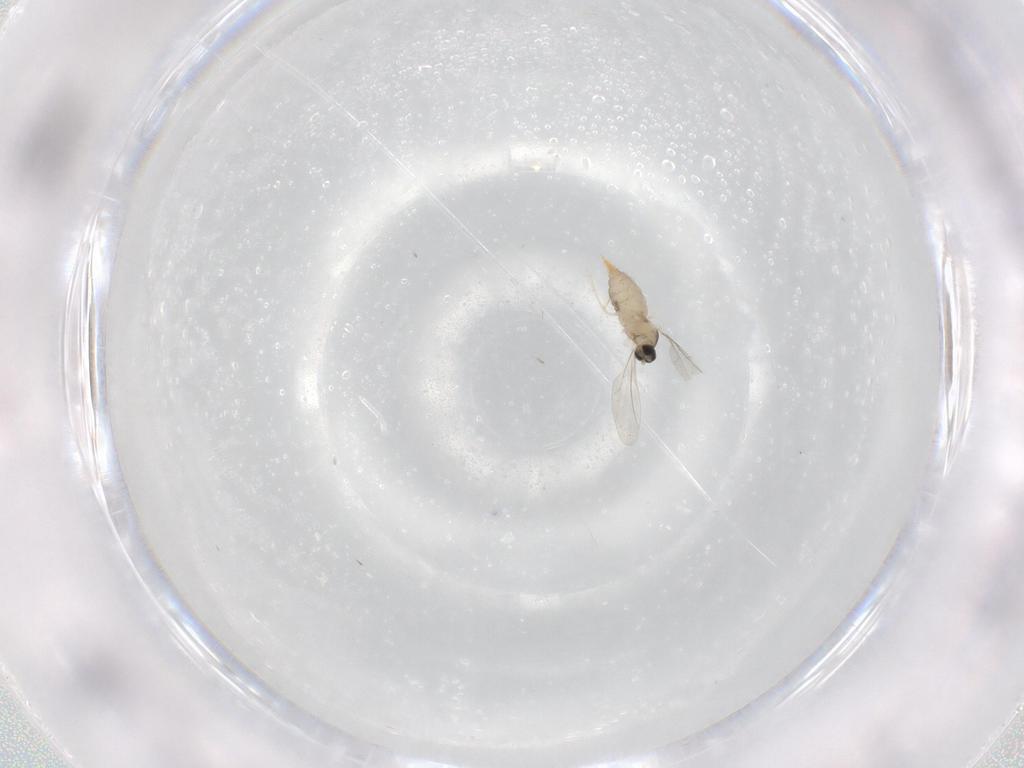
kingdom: Animalia
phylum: Arthropoda
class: Insecta
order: Diptera
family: Cecidomyiidae
